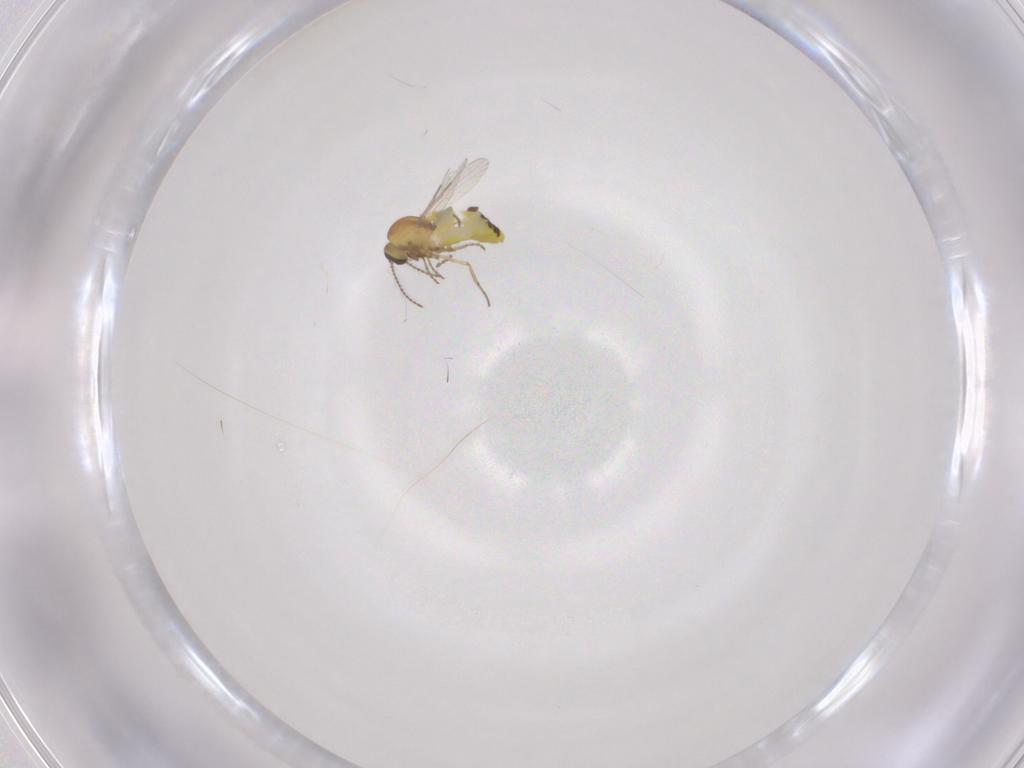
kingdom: Animalia
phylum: Arthropoda
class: Insecta
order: Diptera
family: Ceratopogonidae
